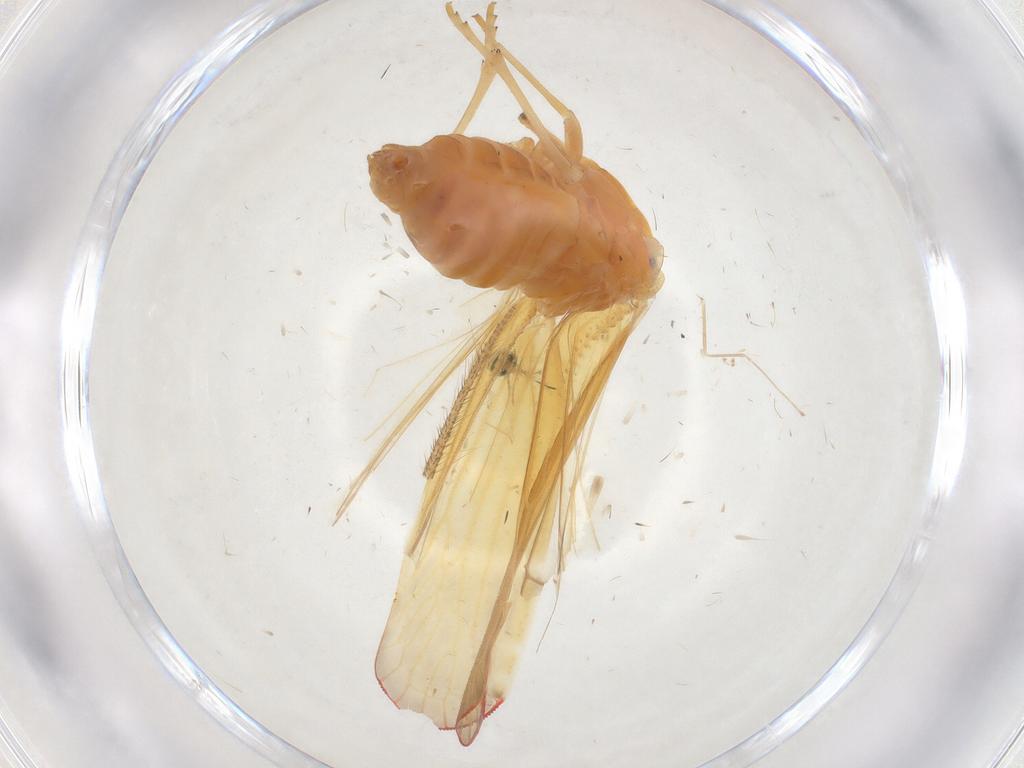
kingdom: Animalia
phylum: Arthropoda
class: Insecta
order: Hemiptera
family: Derbidae
